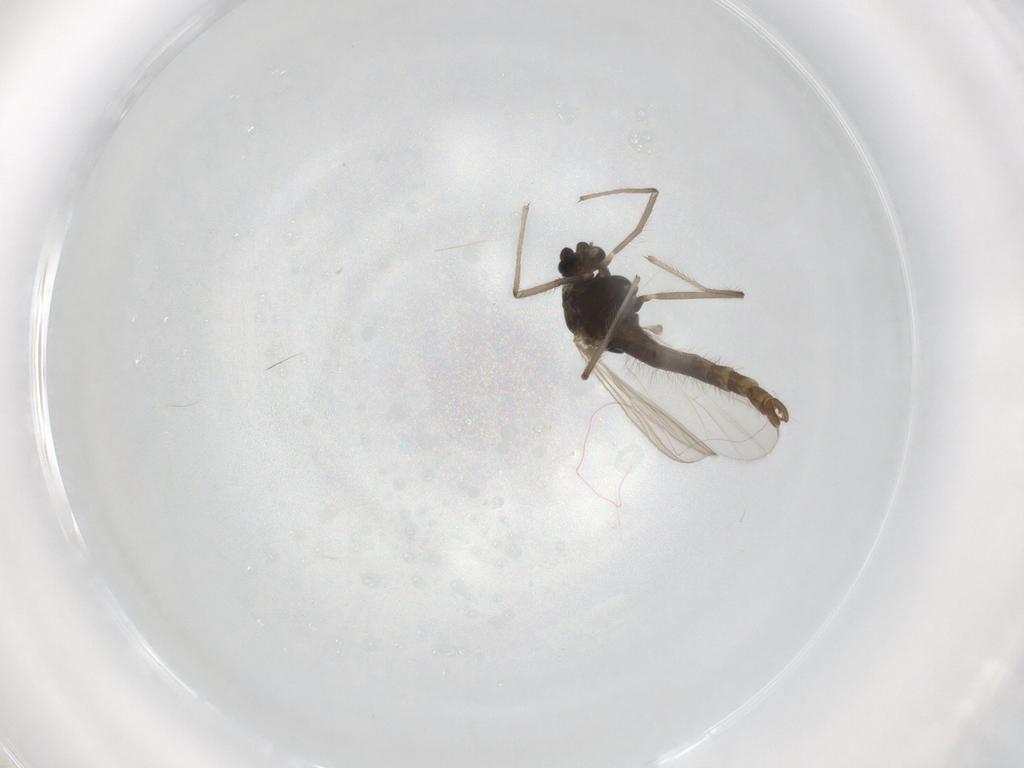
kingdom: Animalia
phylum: Arthropoda
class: Insecta
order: Diptera
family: Chironomidae
